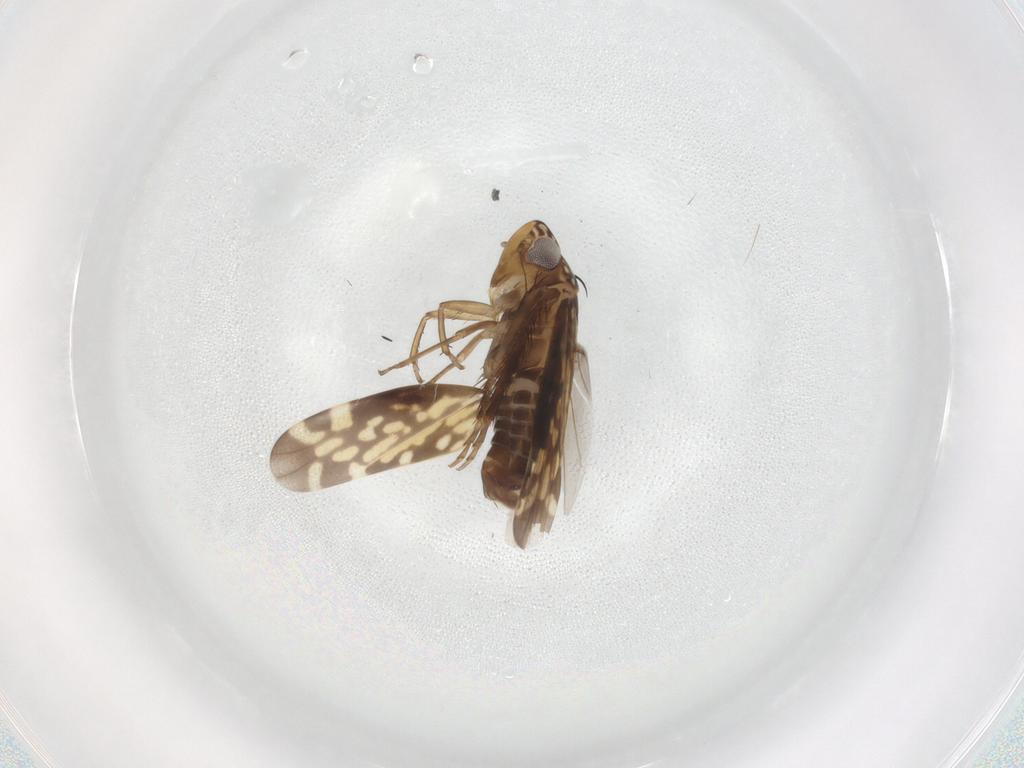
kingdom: Animalia
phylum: Arthropoda
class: Insecta
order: Hemiptera
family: Cicadellidae
